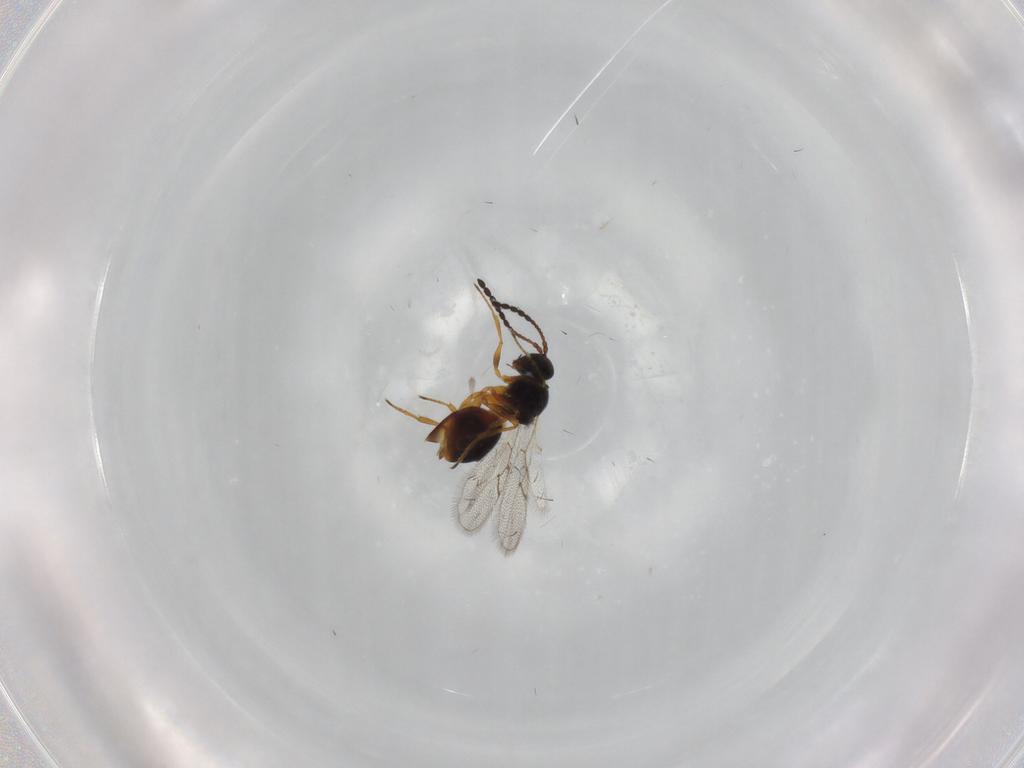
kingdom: Animalia
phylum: Arthropoda
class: Insecta
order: Hymenoptera
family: Figitidae
